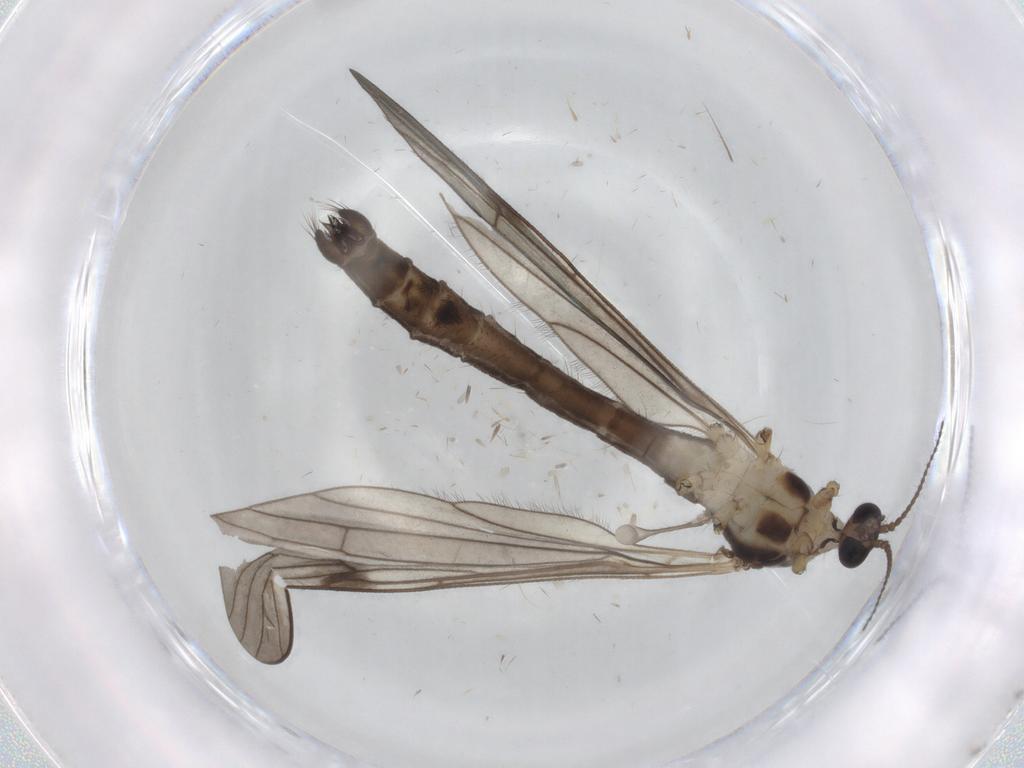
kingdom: Animalia
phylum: Arthropoda
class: Insecta
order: Diptera
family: Limoniidae
